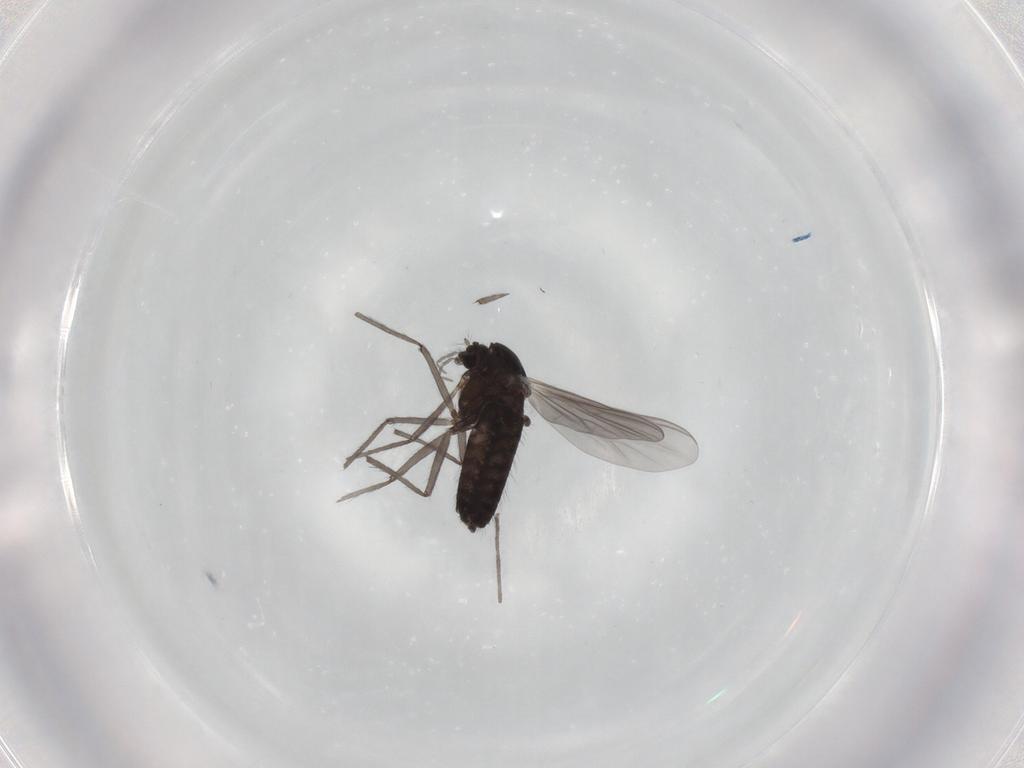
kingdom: Animalia
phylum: Arthropoda
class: Insecta
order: Diptera
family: Chironomidae
